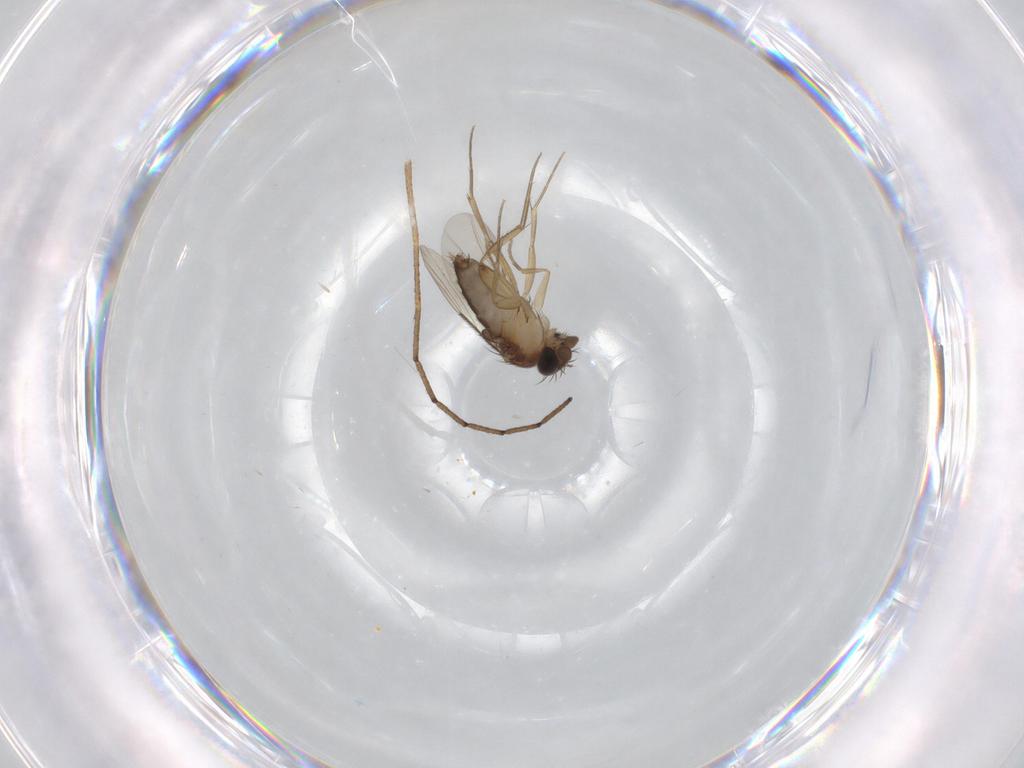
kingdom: Animalia
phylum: Arthropoda
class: Insecta
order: Diptera
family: Phoridae
